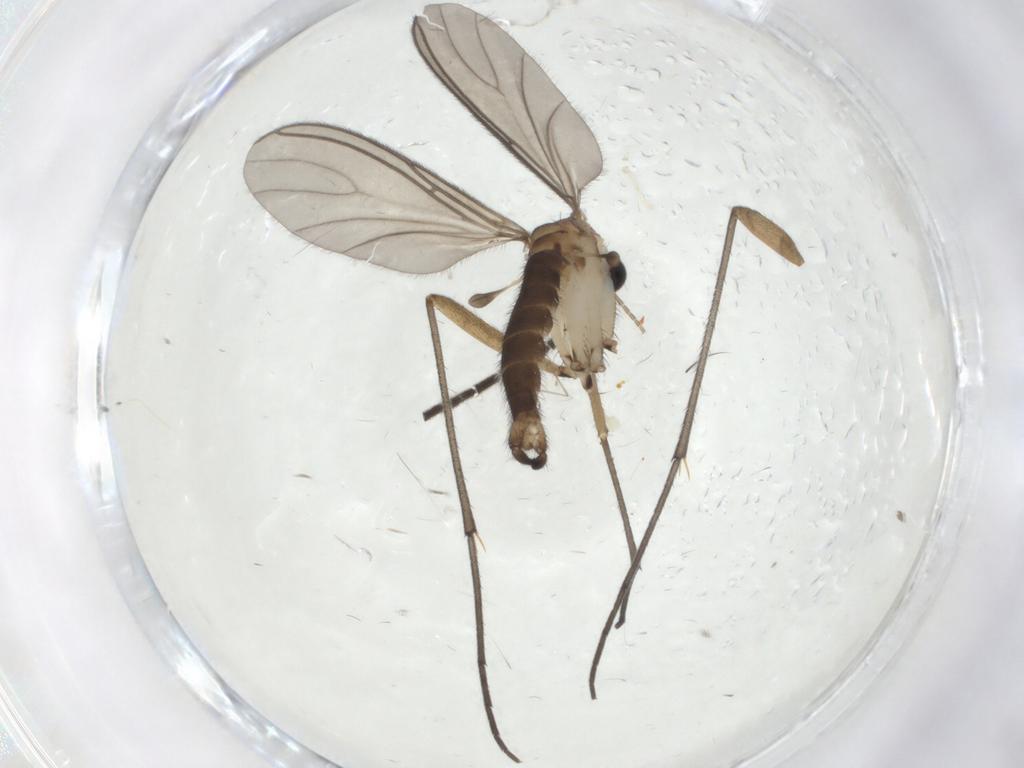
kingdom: Animalia
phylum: Arthropoda
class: Insecta
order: Diptera
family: Sciaridae
